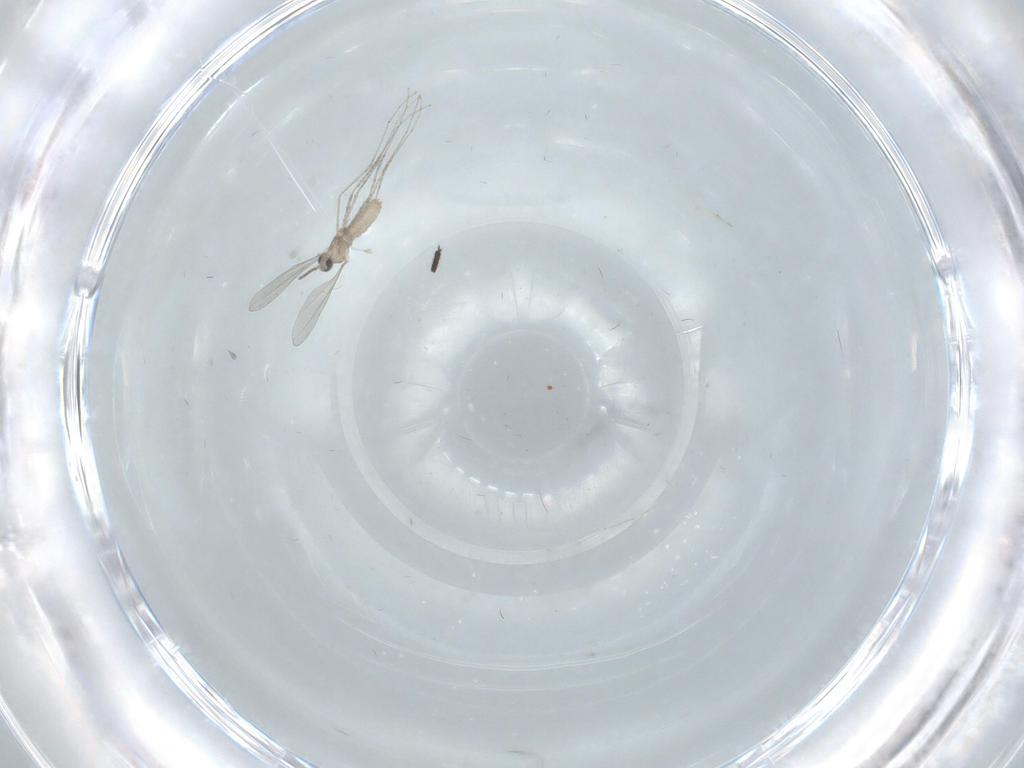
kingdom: Animalia
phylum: Arthropoda
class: Insecta
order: Diptera
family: Sciaridae
